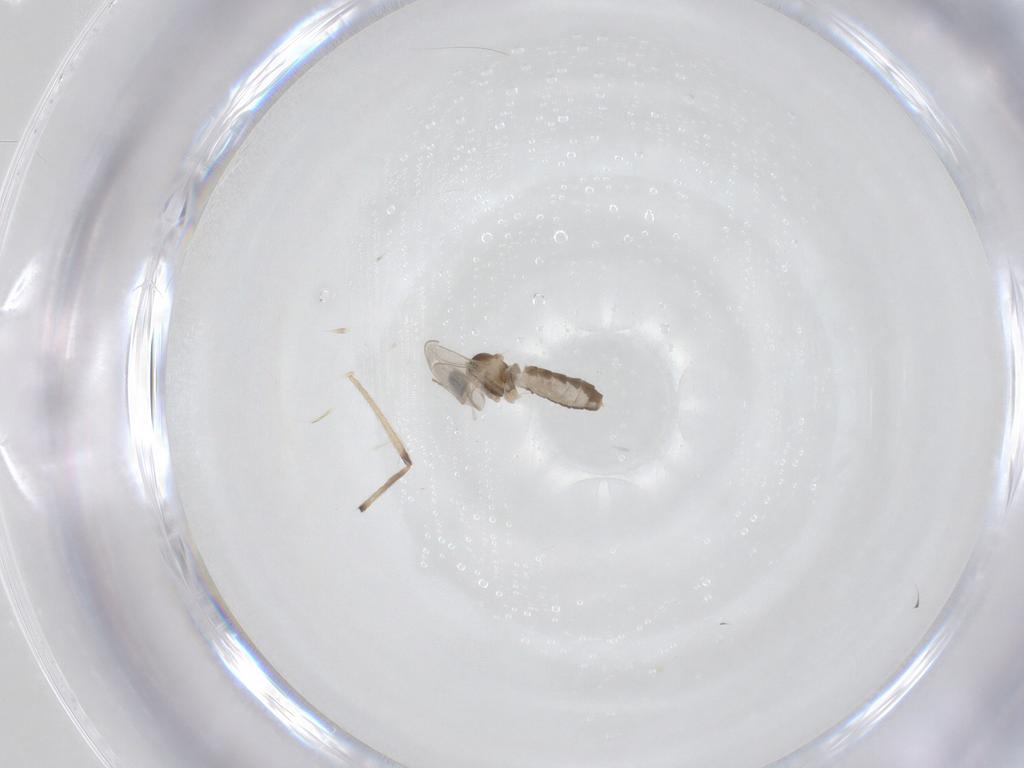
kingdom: Animalia
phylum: Arthropoda
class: Insecta
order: Diptera
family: Cecidomyiidae
